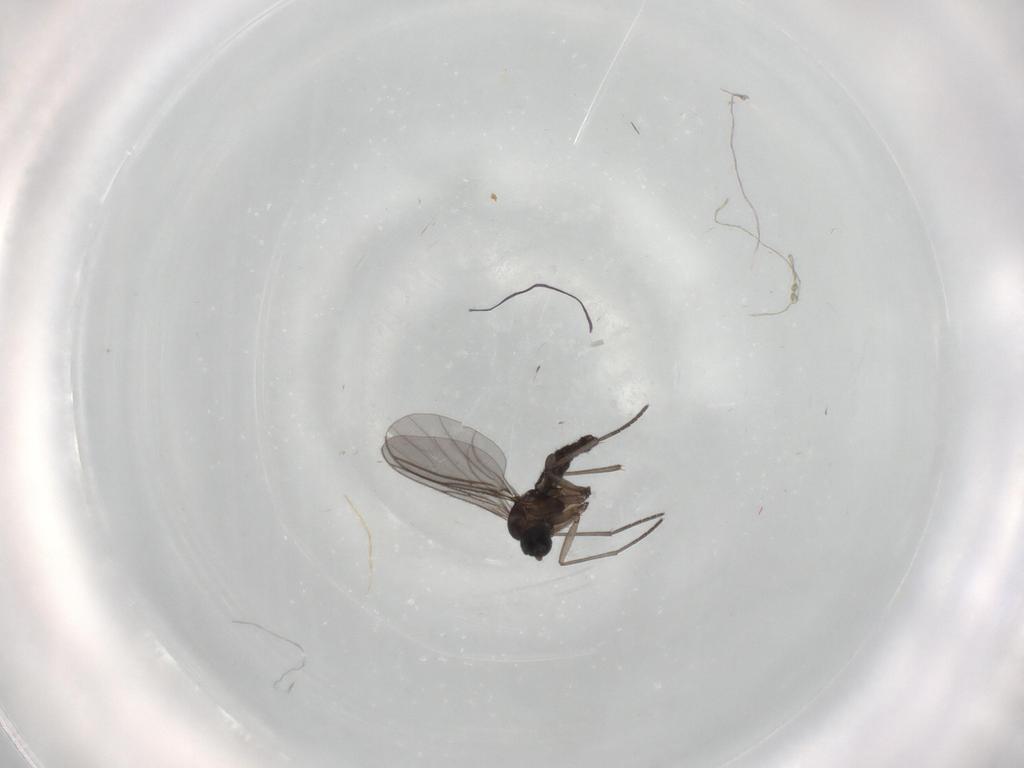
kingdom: Animalia
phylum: Arthropoda
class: Insecta
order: Diptera
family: Sciaridae
